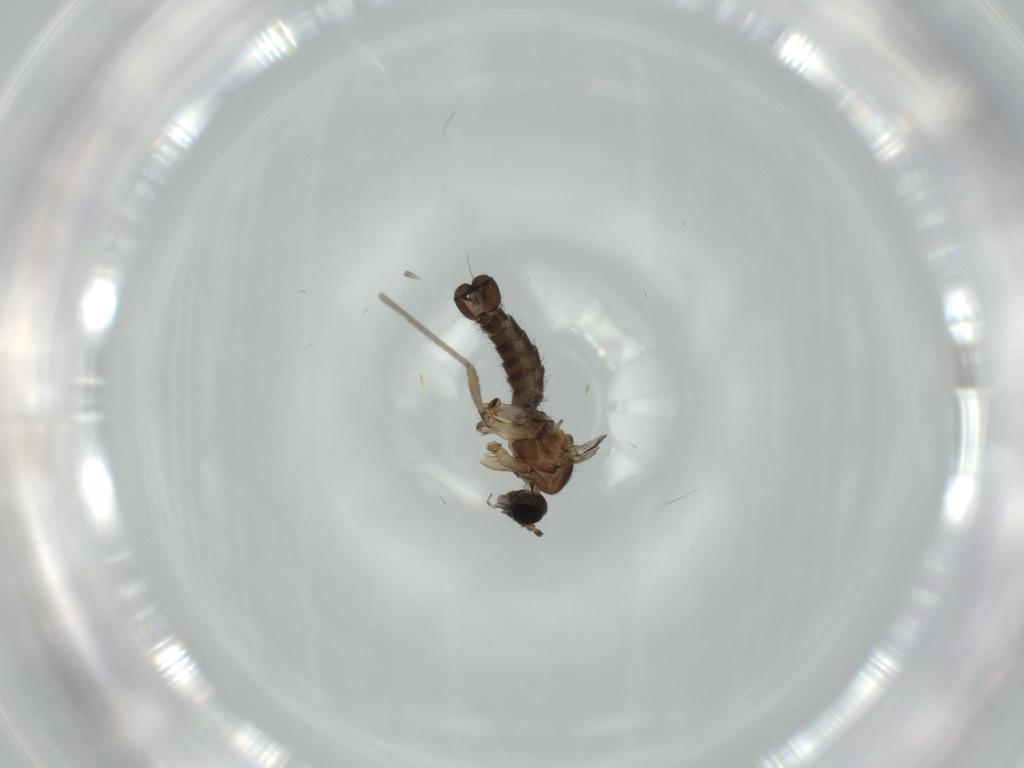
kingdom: Animalia
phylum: Arthropoda
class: Insecta
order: Diptera
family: Sciaridae
